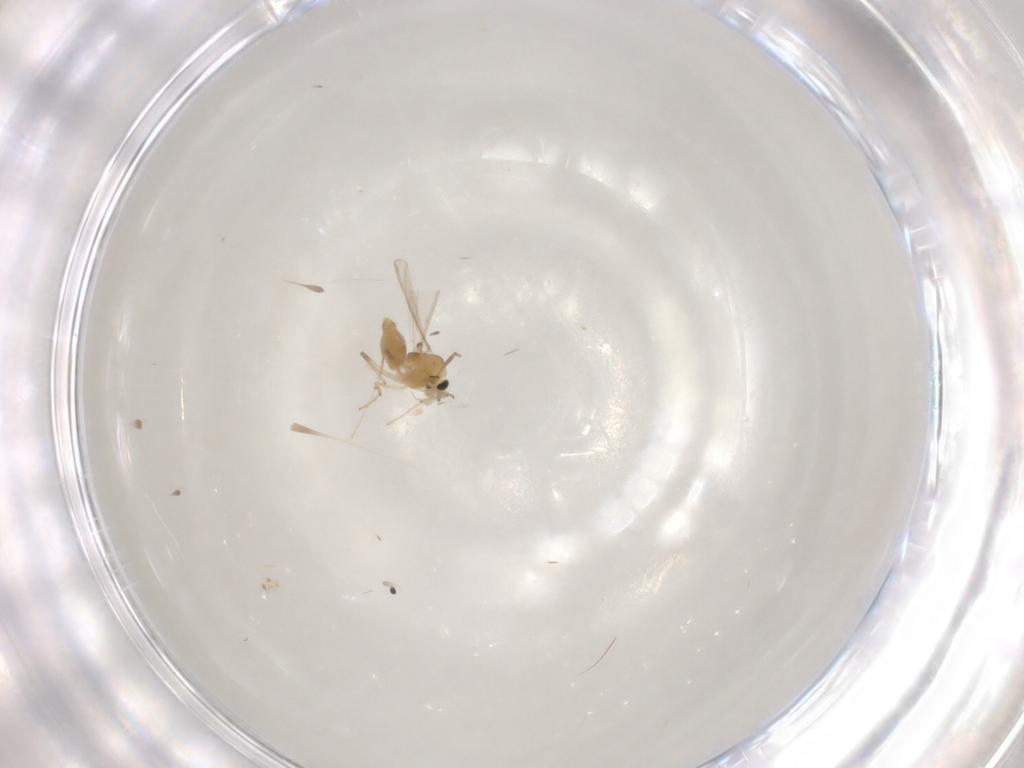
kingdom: Animalia
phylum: Arthropoda
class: Insecta
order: Diptera
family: Chironomidae
